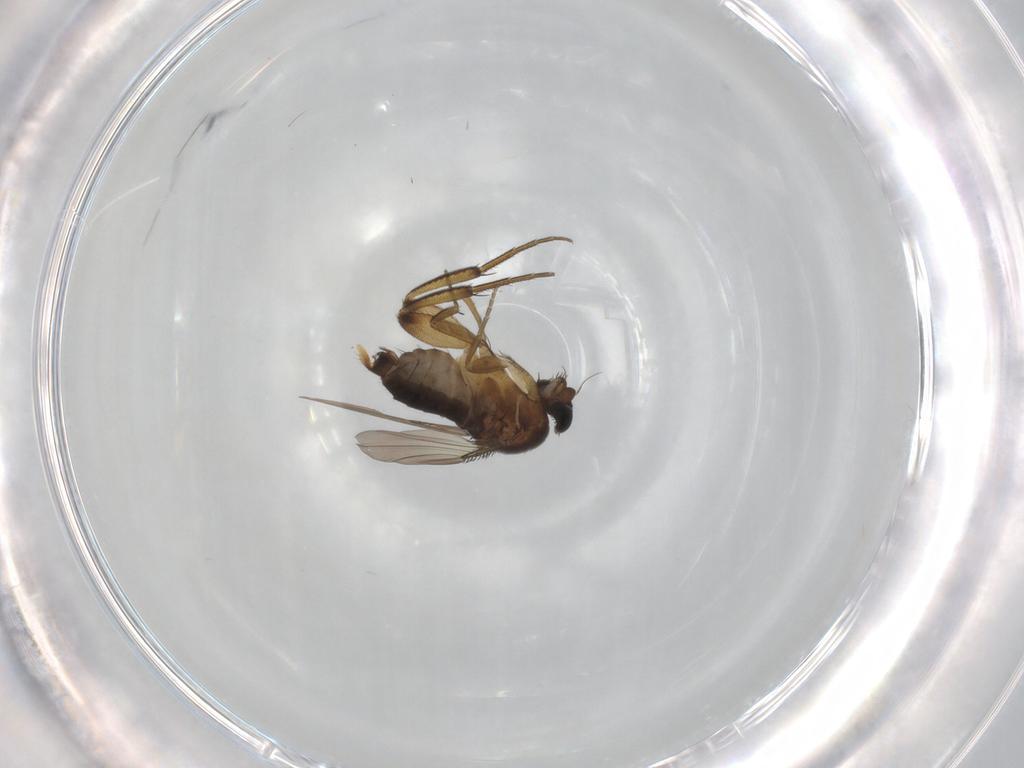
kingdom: Animalia
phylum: Arthropoda
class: Insecta
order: Diptera
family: Phoridae
